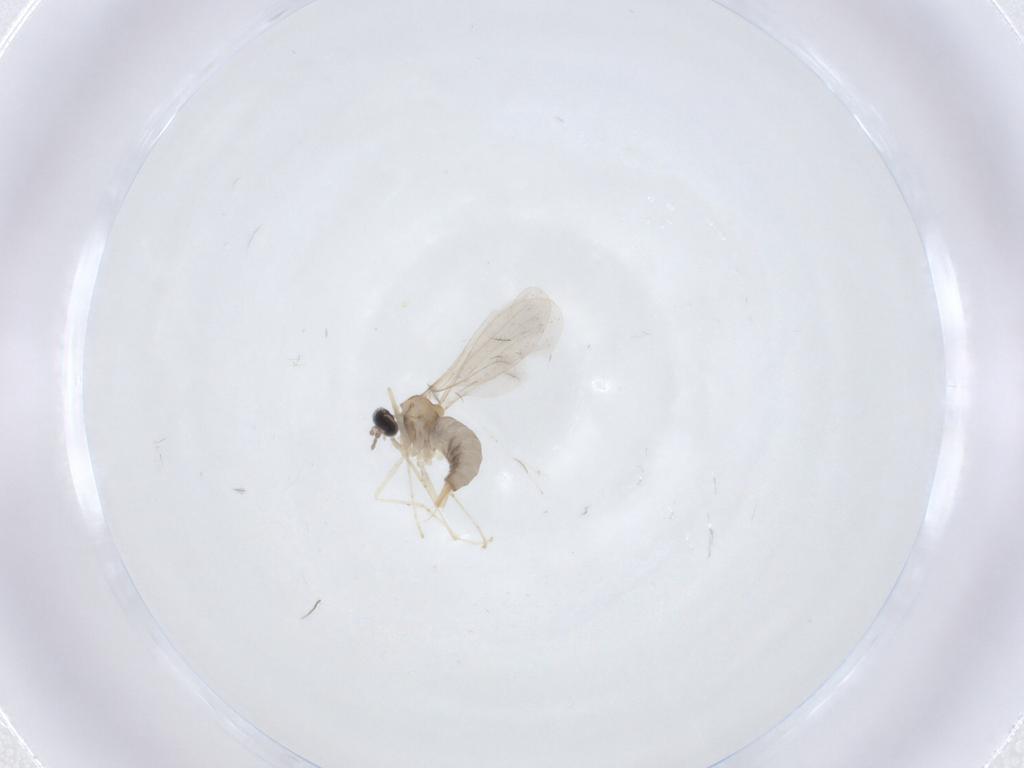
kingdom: Animalia
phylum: Arthropoda
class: Insecta
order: Diptera
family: Cecidomyiidae
